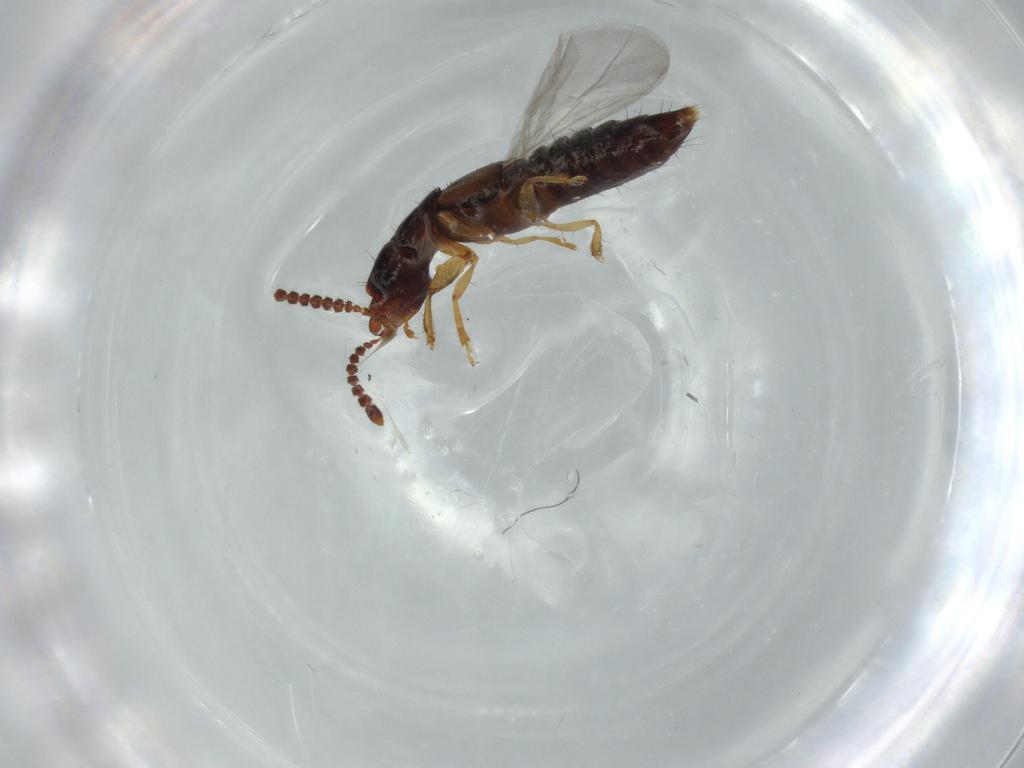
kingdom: Animalia
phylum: Arthropoda
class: Insecta
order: Coleoptera
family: Staphylinidae
